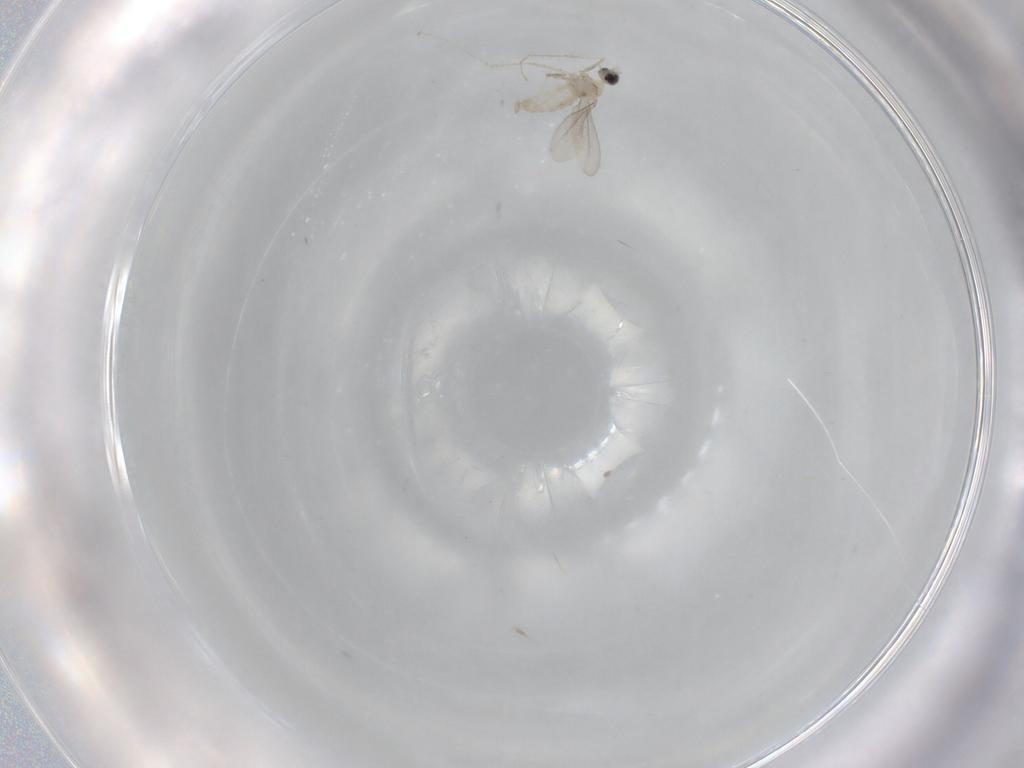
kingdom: Animalia
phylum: Arthropoda
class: Insecta
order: Diptera
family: Cecidomyiidae
